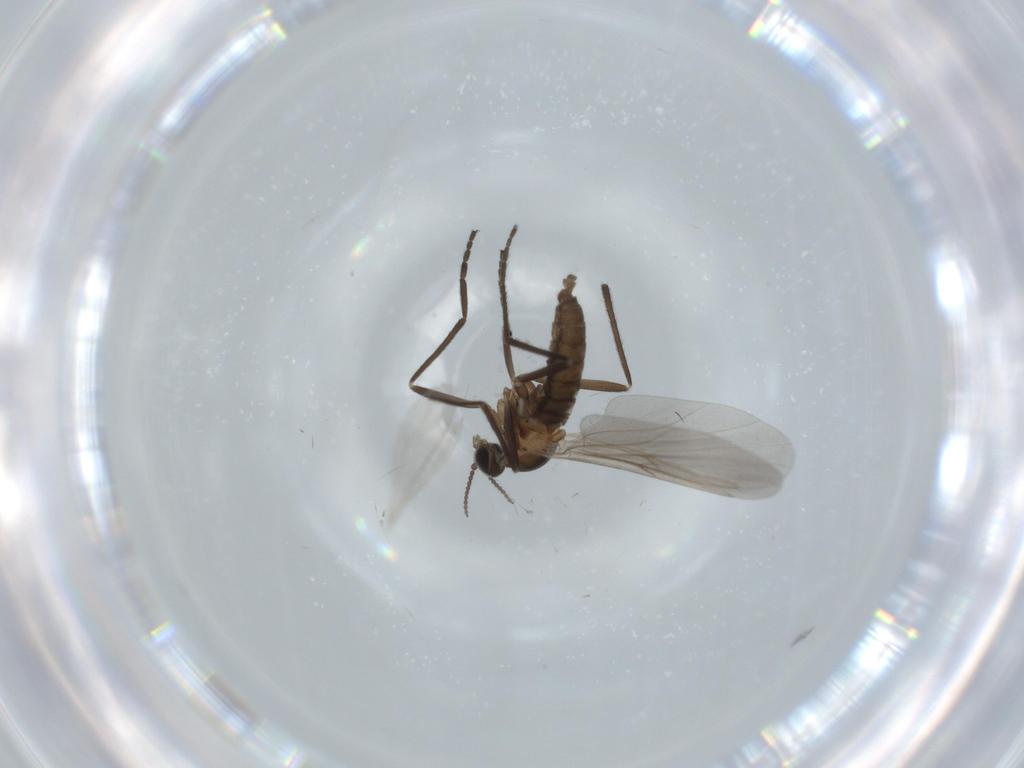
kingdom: Animalia
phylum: Arthropoda
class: Insecta
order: Diptera
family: Cecidomyiidae
